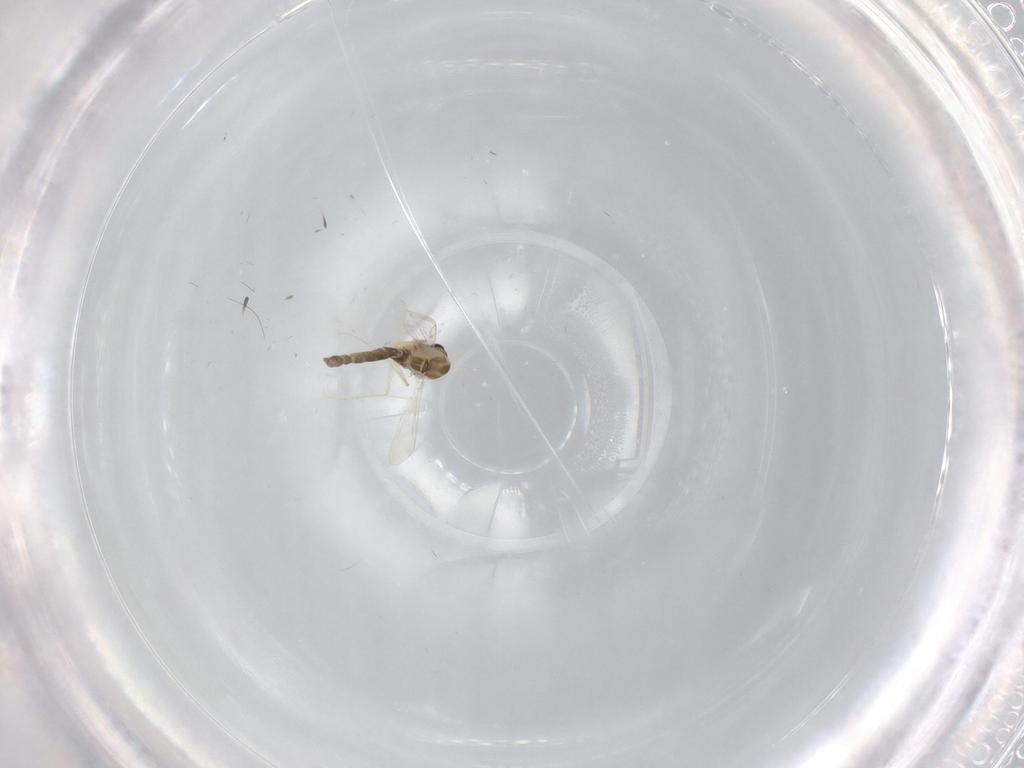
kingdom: Animalia
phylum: Arthropoda
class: Insecta
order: Diptera
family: Chironomidae
